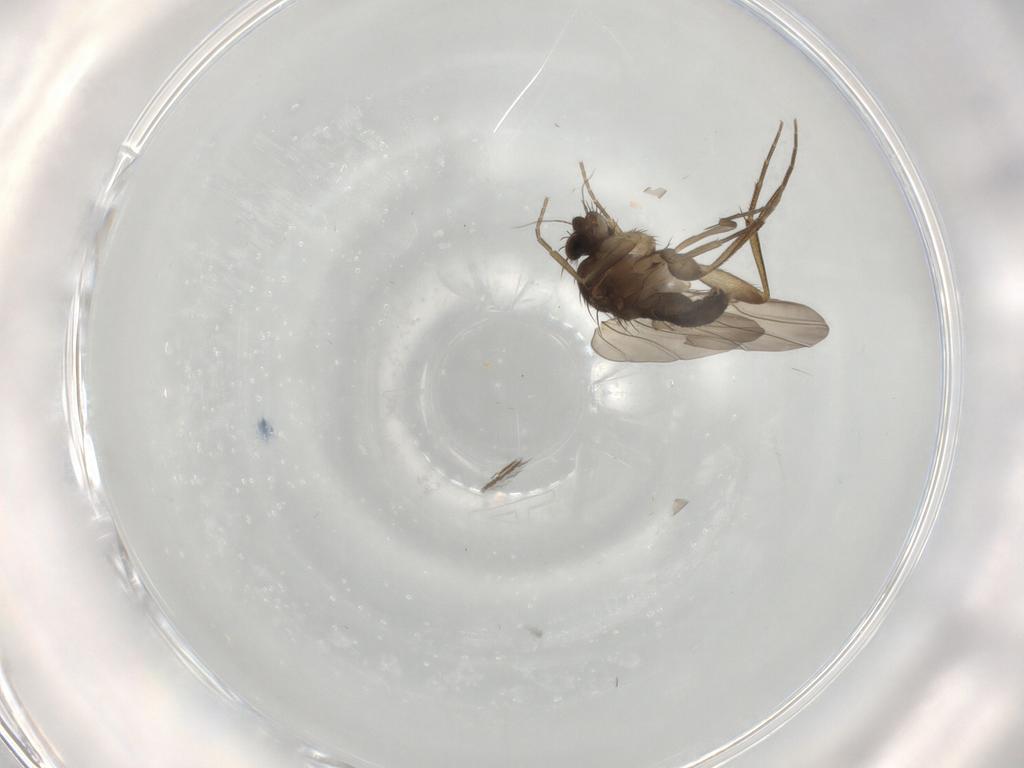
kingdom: Animalia
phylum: Arthropoda
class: Insecta
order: Diptera
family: Phoridae
